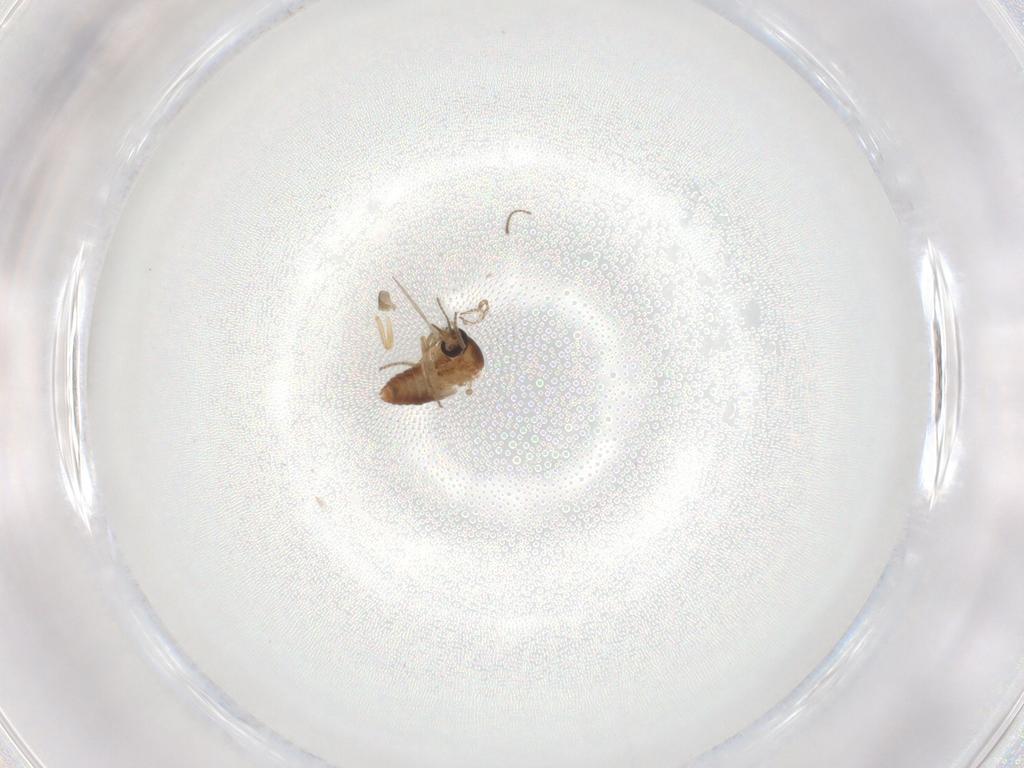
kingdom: Animalia
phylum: Arthropoda
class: Insecta
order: Diptera
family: Ceratopogonidae
